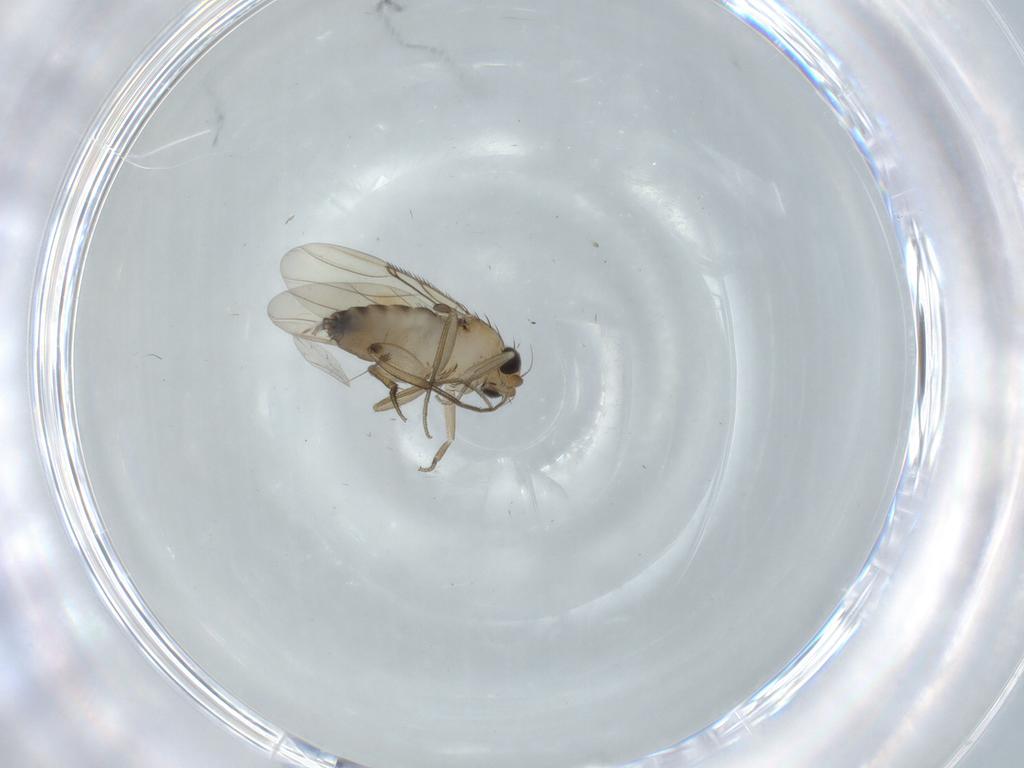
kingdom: Animalia
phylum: Arthropoda
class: Insecta
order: Diptera
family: Phoridae
